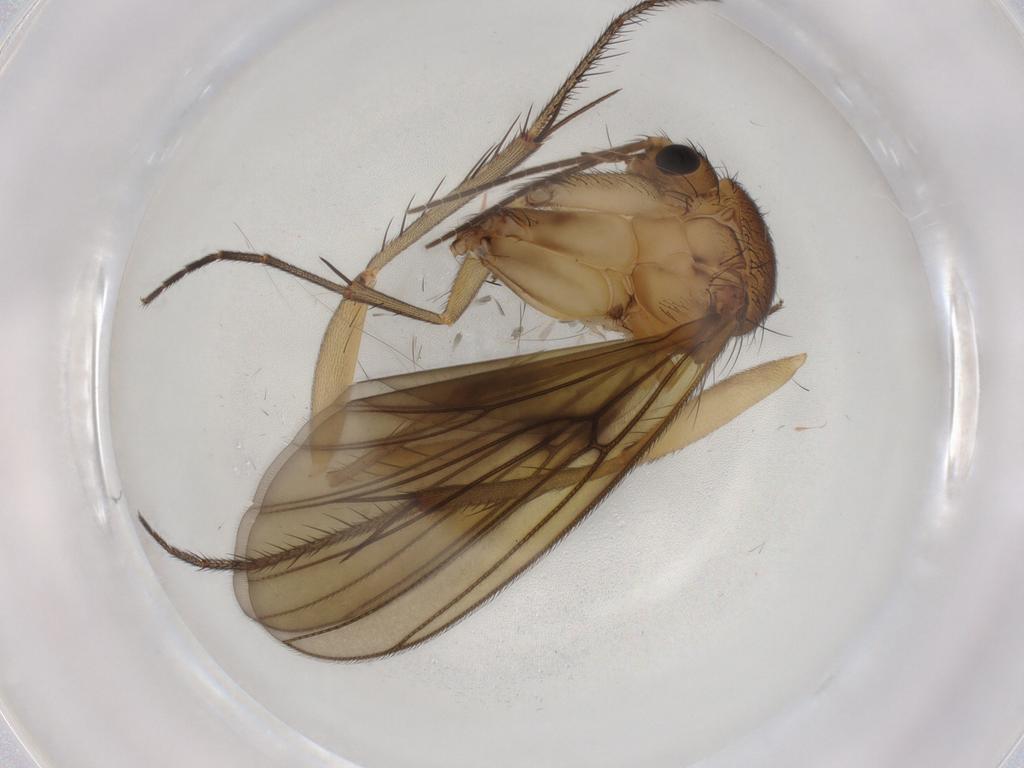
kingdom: Animalia
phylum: Arthropoda
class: Insecta
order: Diptera
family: Mycetophilidae
